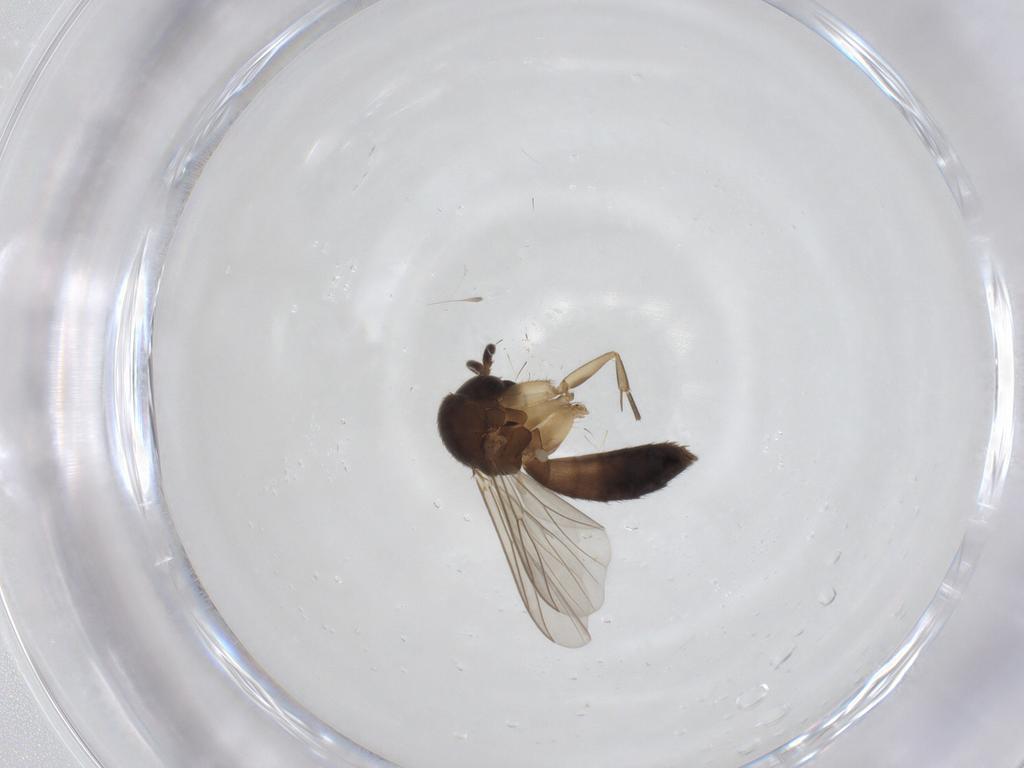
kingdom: Animalia
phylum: Arthropoda
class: Insecta
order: Diptera
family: Mycetophilidae
